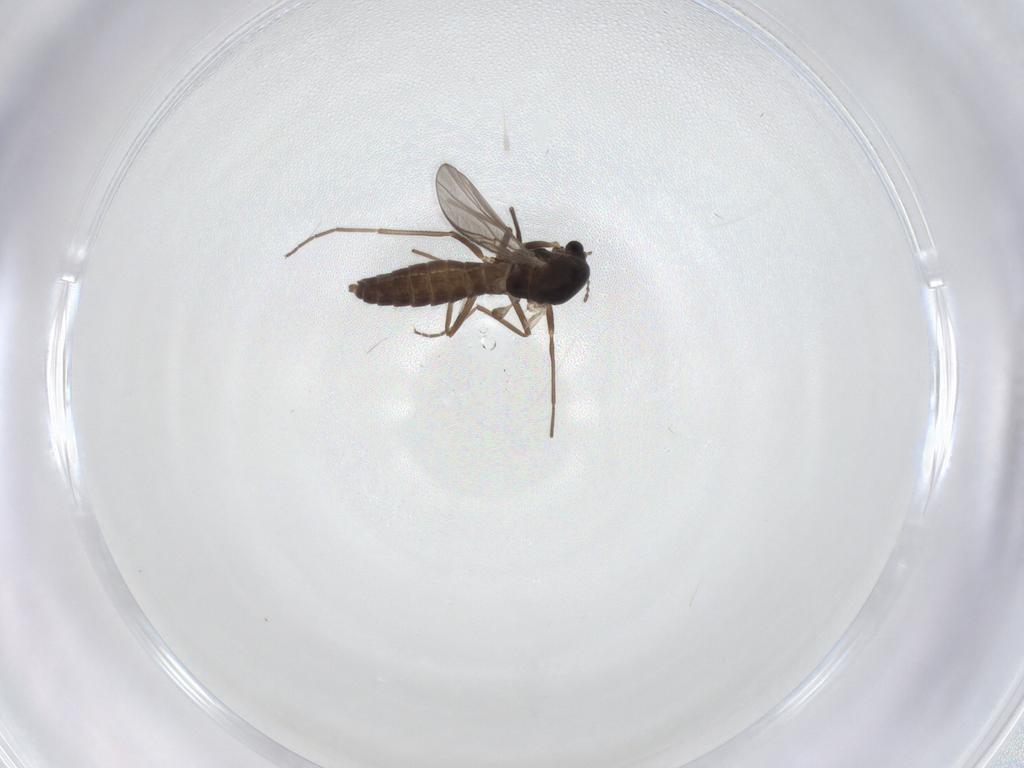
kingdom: Animalia
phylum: Arthropoda
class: Insecta
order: Diptera
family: Chironomidae
